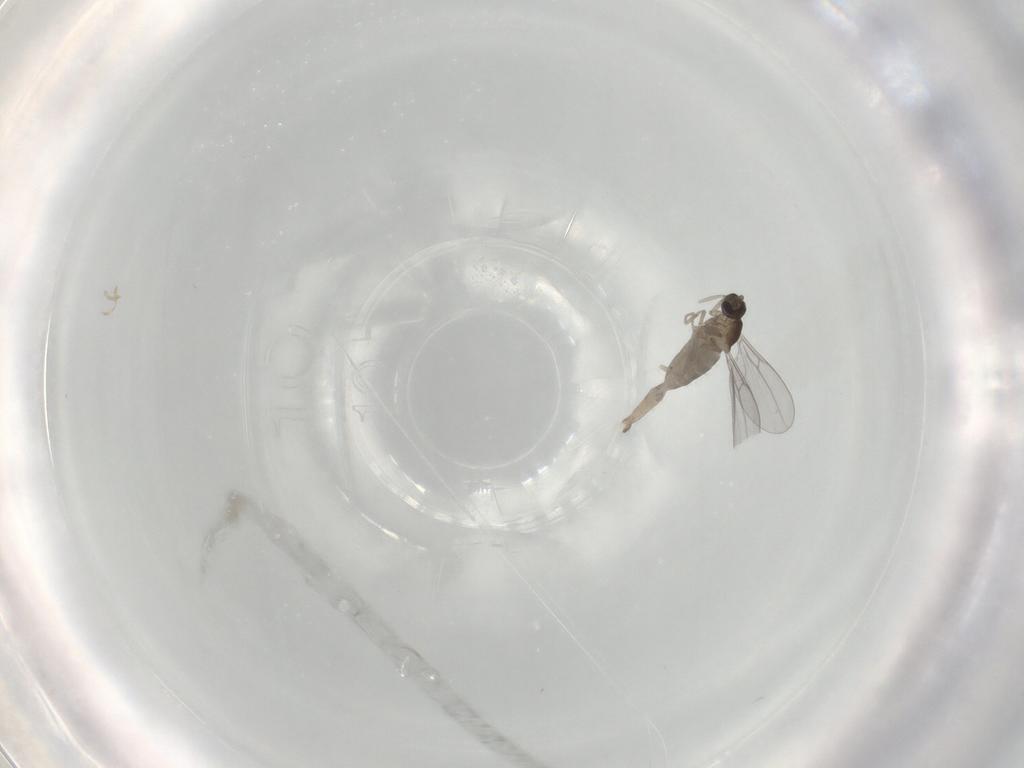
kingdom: Animalia
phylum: Arthropoda
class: Insecta
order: Diptera
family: Cecidomyiidae
